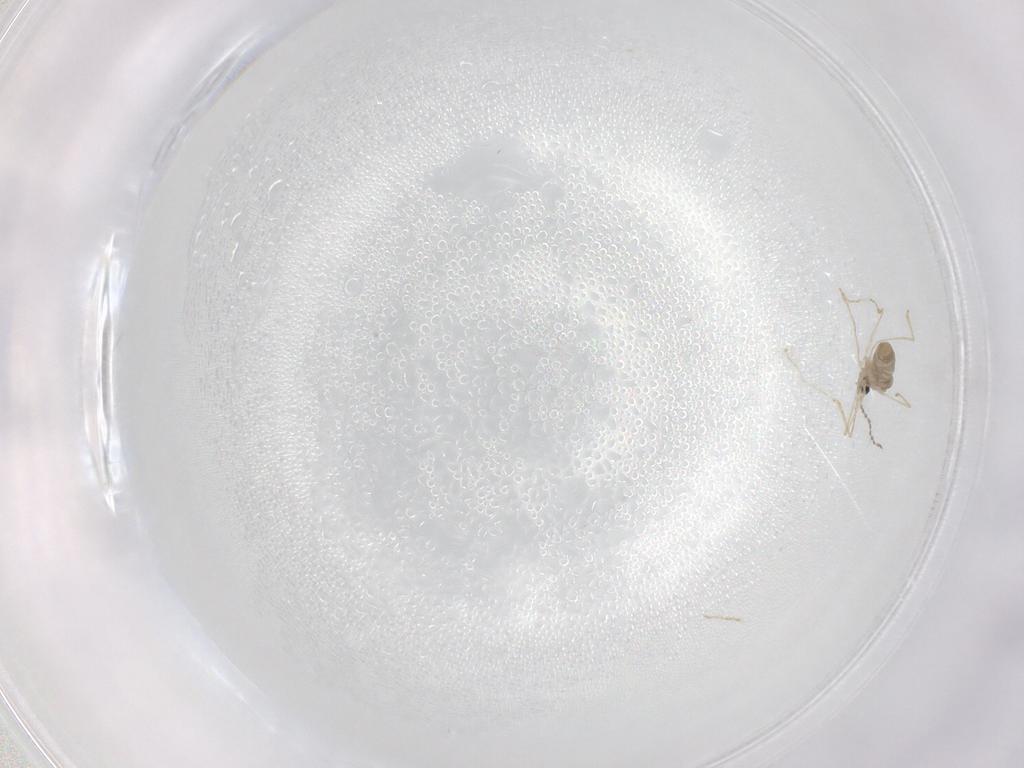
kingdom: Animalia
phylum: Arthropoda
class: Insecta
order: Diptera
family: Cecidomyiidae
